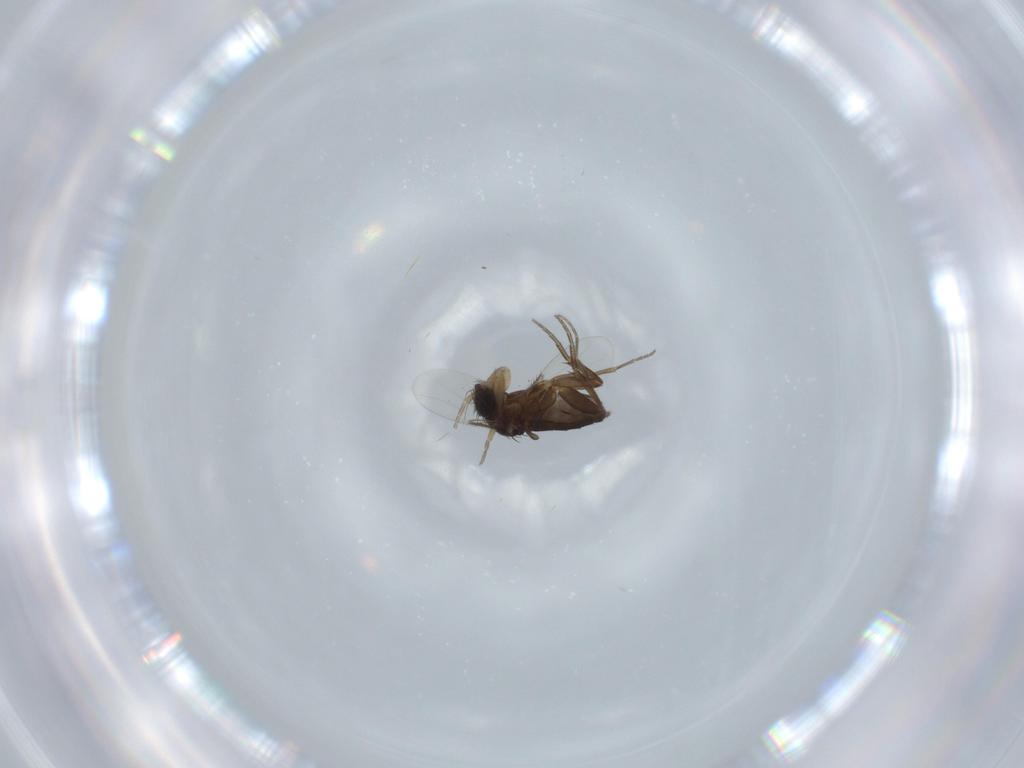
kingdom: Animalia
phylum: Arthropoda
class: Insecta
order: Diptera
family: Phoridae
